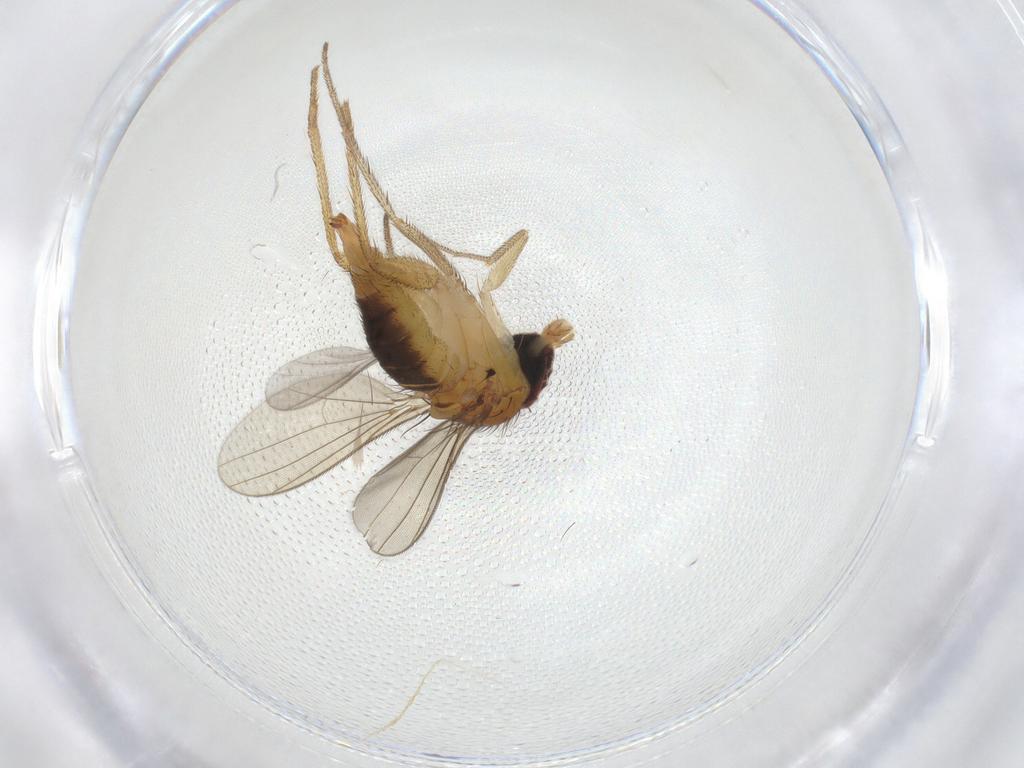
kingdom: Animalia
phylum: Arthropoda
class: Insecta
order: Diptera
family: Dolichopodidae
